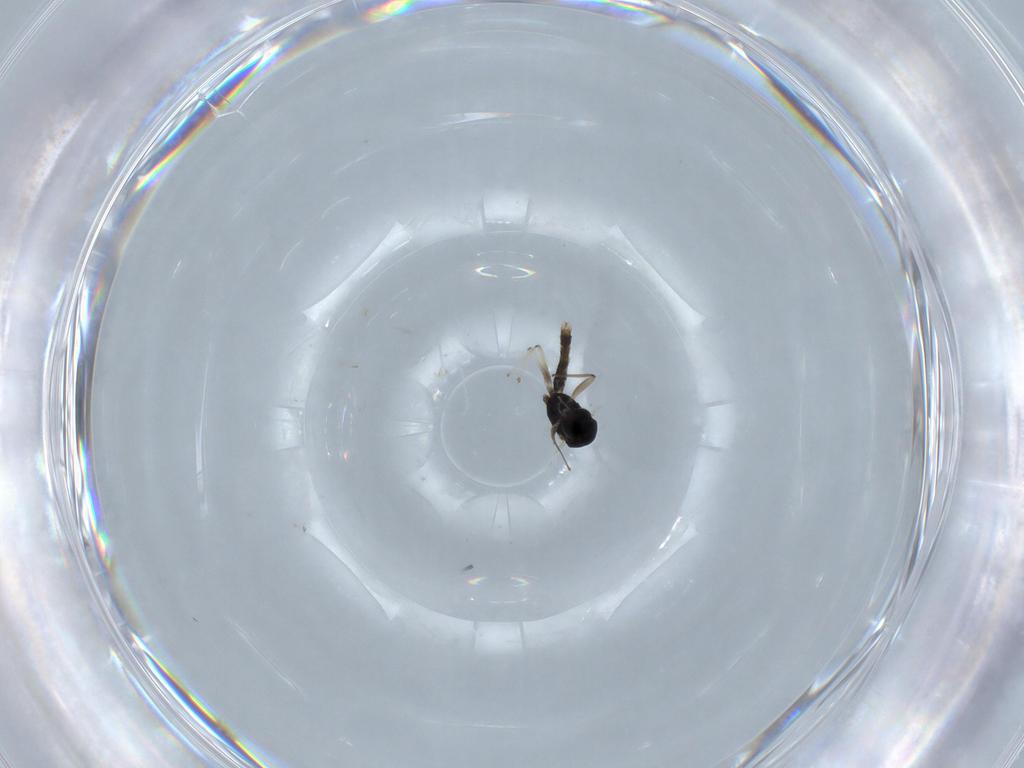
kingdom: Animalia
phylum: Arthropoda
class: Insecta
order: Diptera
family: Chironomidae
